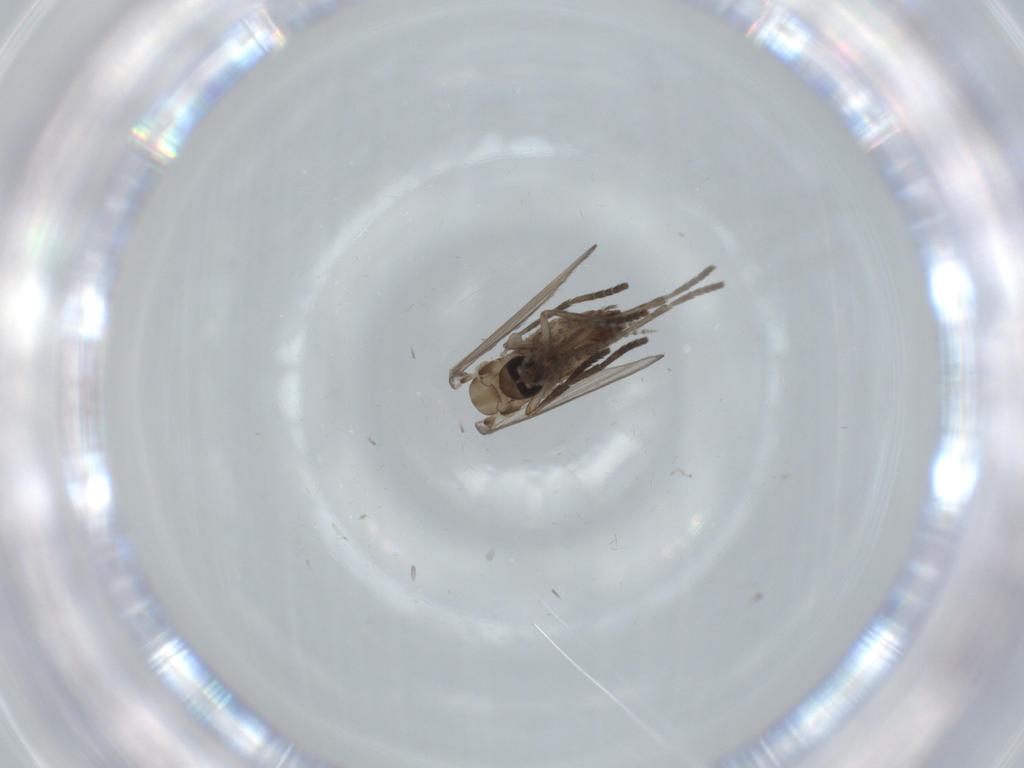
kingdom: Animalia
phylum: Arthropoda
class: Insecta
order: Diptera
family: Psychodidae
